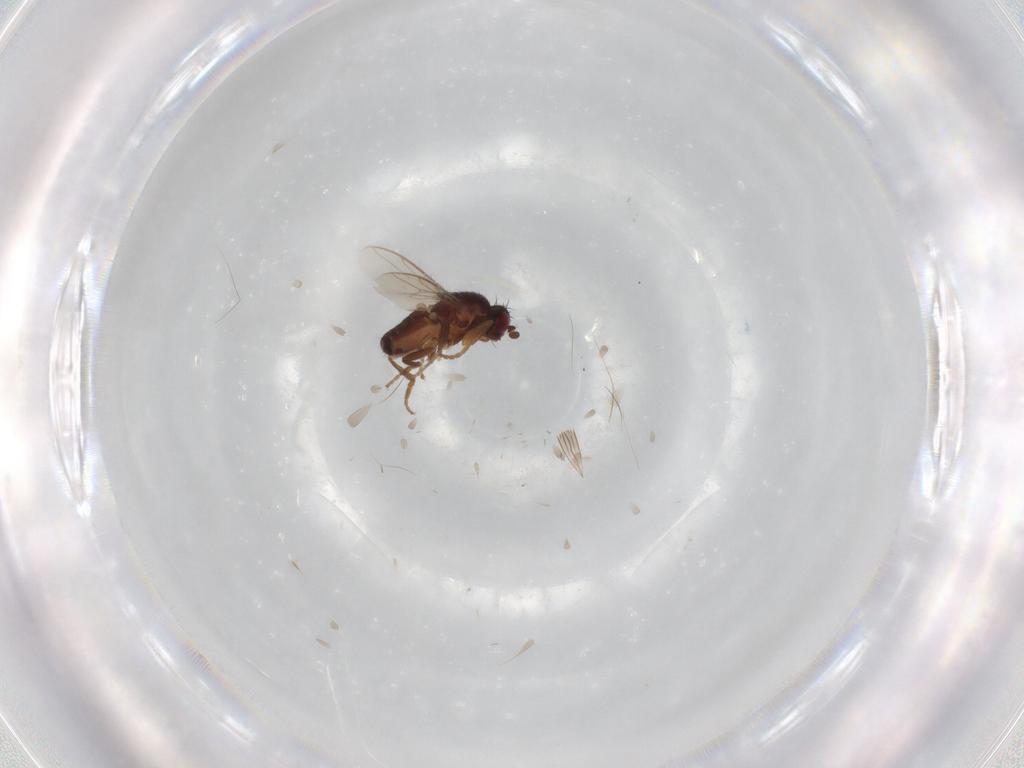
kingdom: Animalia
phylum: Arthropoda
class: Insecta
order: Diptera
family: Sphaeroceridae
